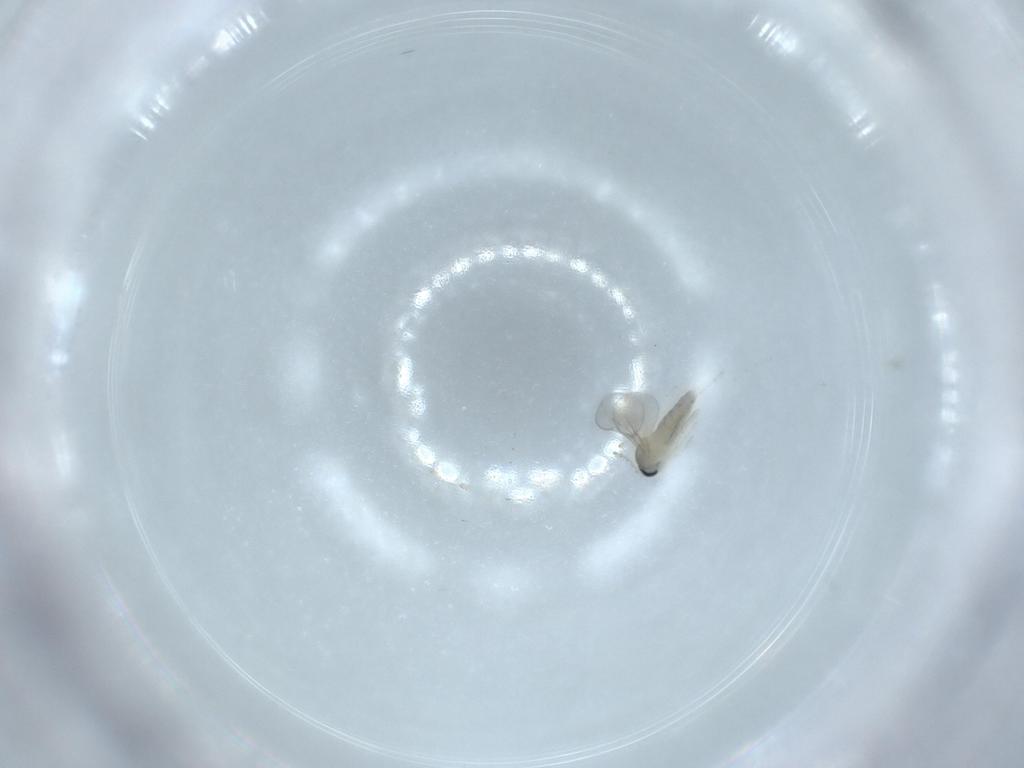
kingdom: Animalia
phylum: Arthropoda
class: Insecta
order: Diptera
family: Cecidomyiidae
